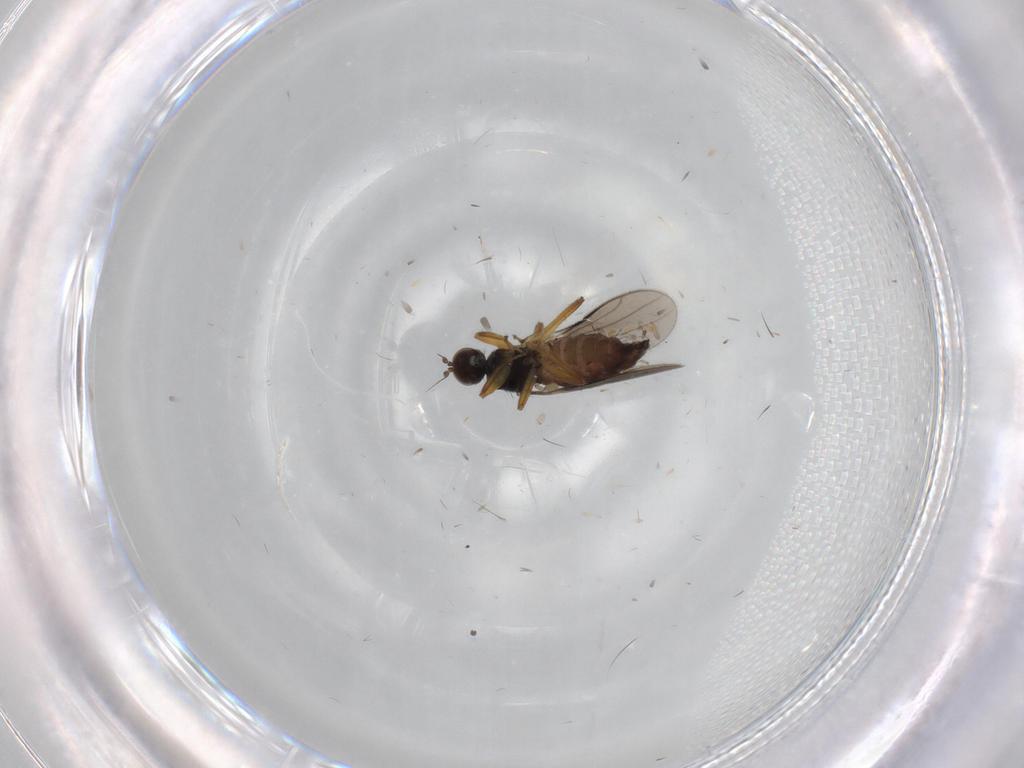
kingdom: Animalia
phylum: Arthropoda
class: Insecta
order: Diptera
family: Hybotidae
